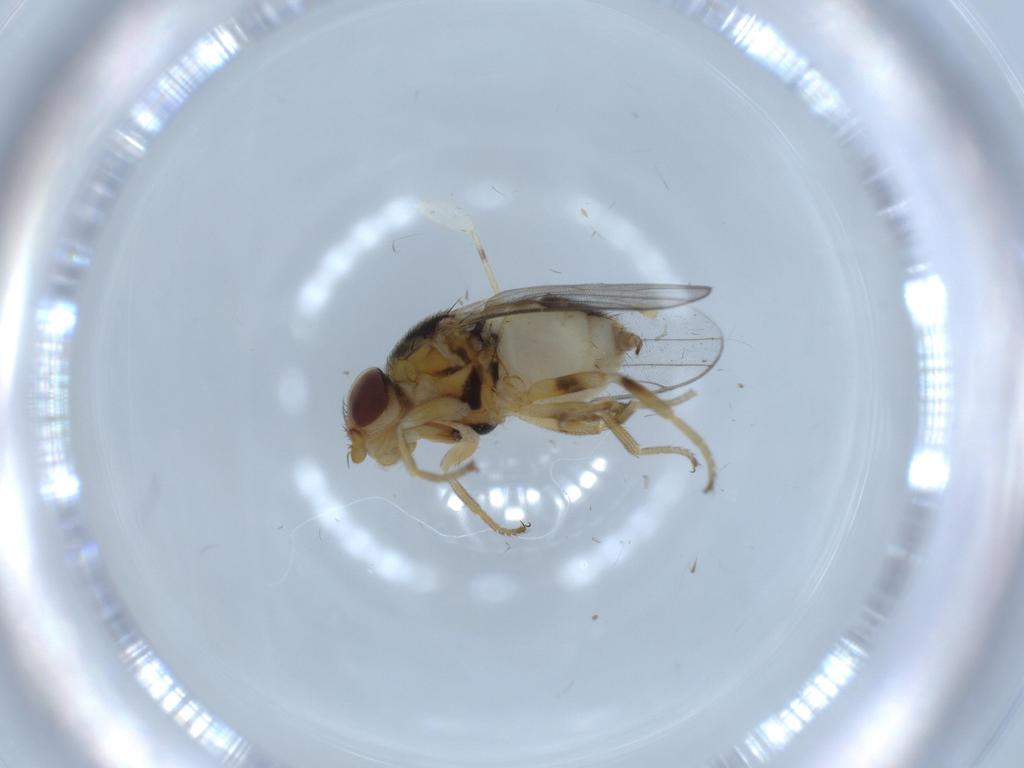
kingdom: Animalia
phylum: Arthropoda
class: Insecta
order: Diptera
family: Chloropidae
